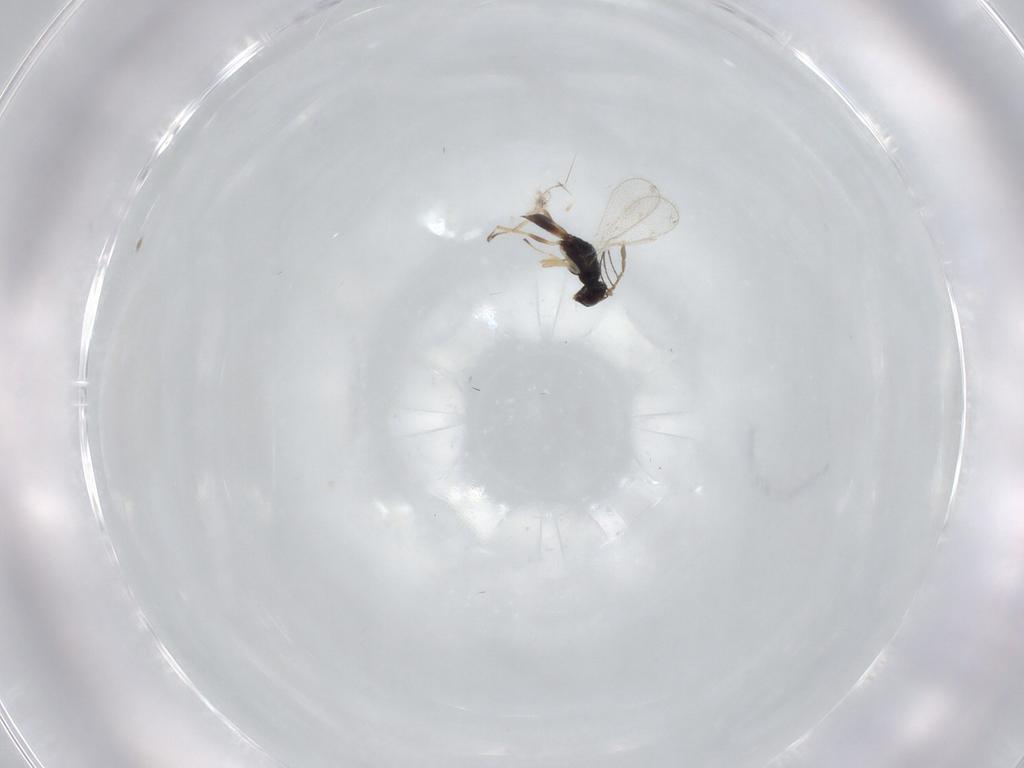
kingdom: Animalia
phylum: Arthropoda
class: Insecta
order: Hymenoptera
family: Eulophidae
